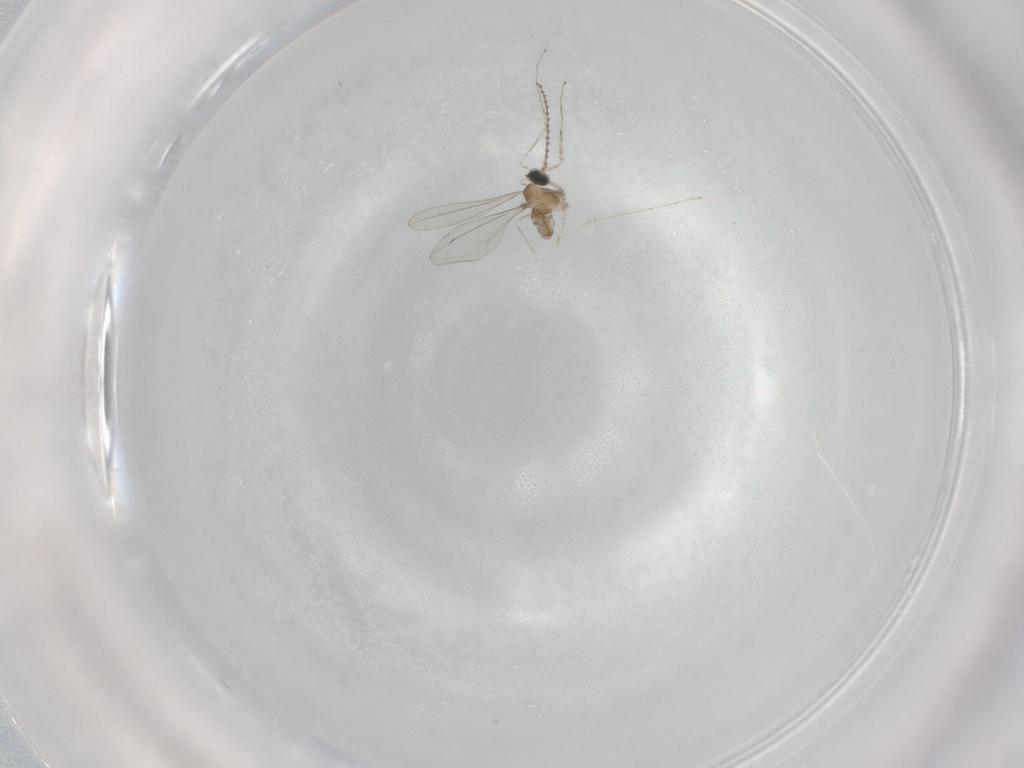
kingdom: Animalia
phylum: Arthropoda
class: Insecta
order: Diptera
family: Cecidomyiidae
